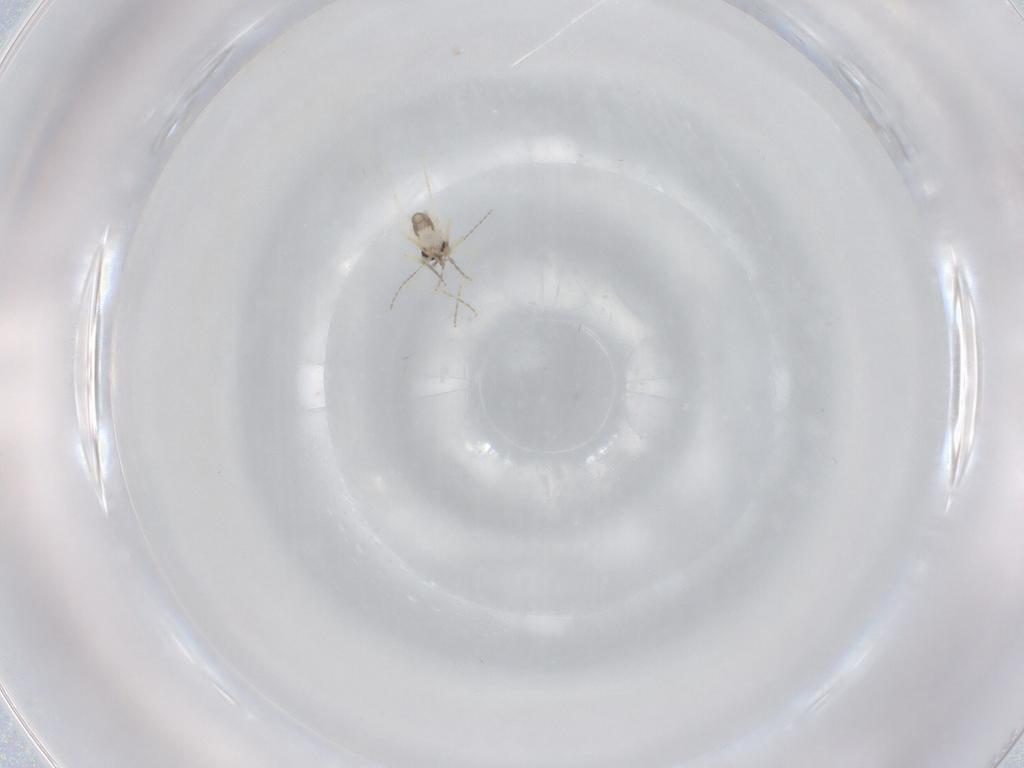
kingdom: Animalia
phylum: Arthropoda
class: Insecta
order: Diptera
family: Ceratopogonidae
